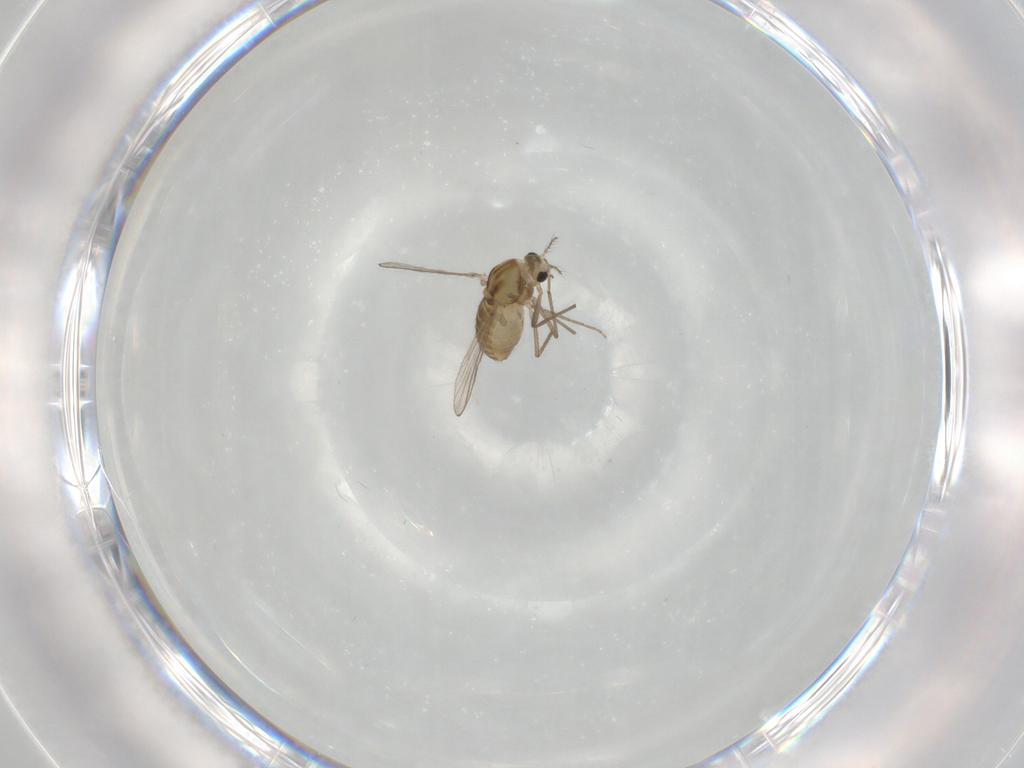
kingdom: Animalia
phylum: Arthropoda
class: Insecta
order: Diptera
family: Chironomidae
